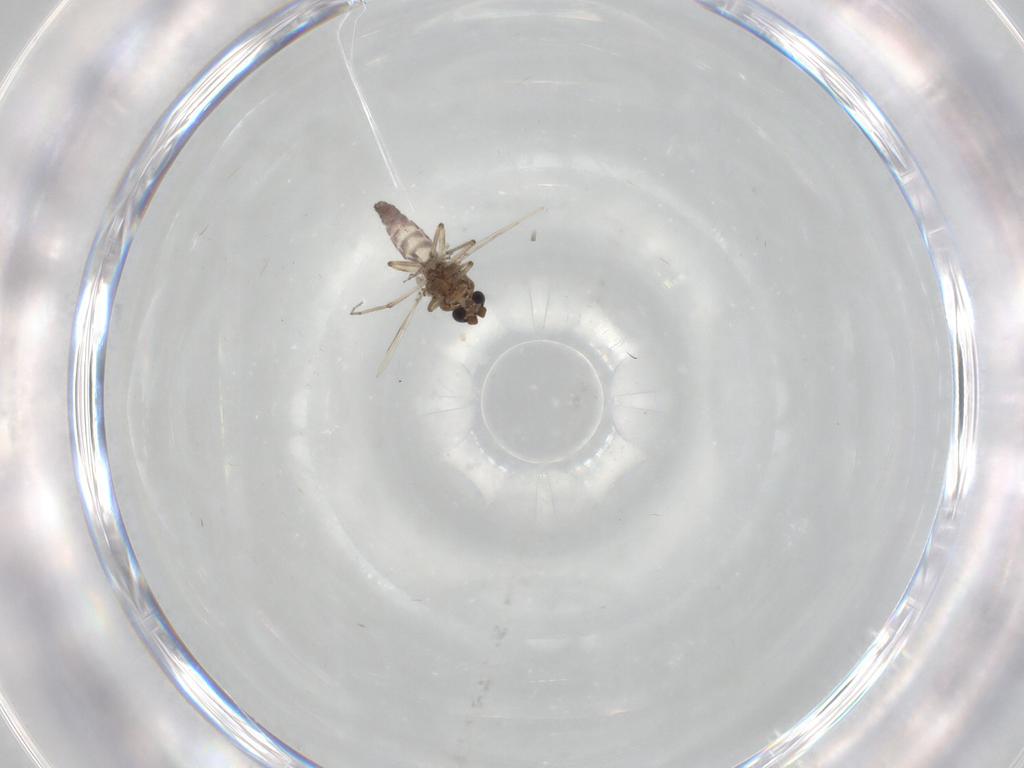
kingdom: Animalia
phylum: Arthropoda
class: Insecta
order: Diptera
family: Ceratopogonidae
